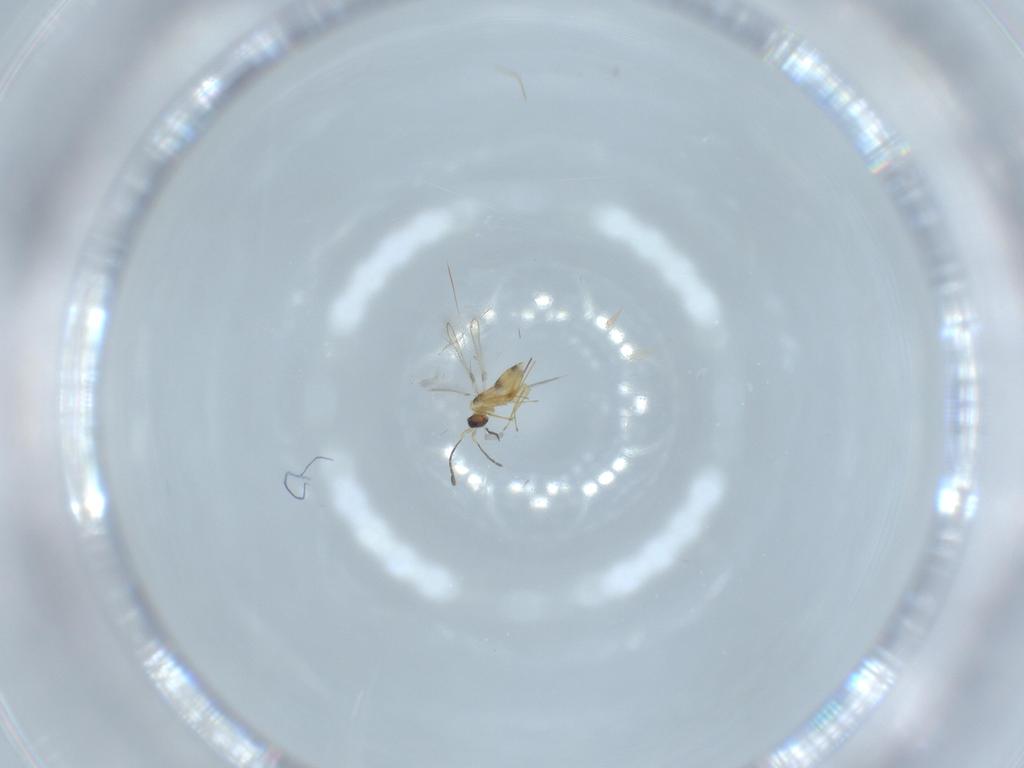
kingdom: Animalia
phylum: Arthropoda
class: Insecta
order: Hymenoptera
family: Mymaridae
